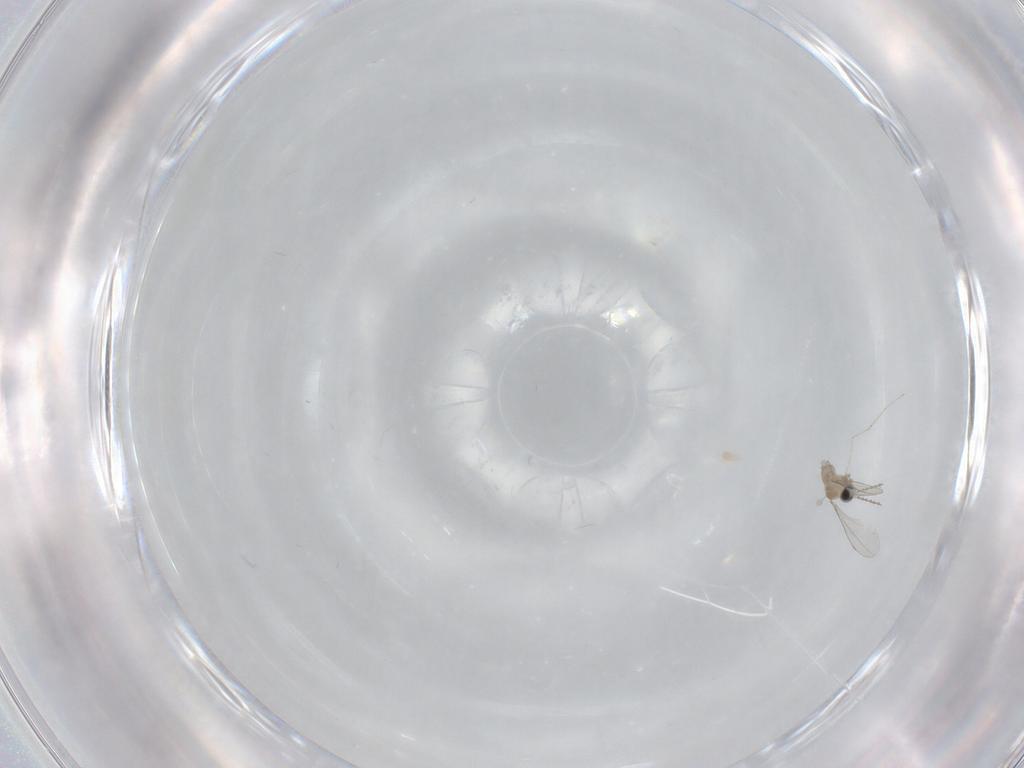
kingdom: Animalia
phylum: Arthropoda
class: Insecta
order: Diptera
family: Cecidomyiidae
